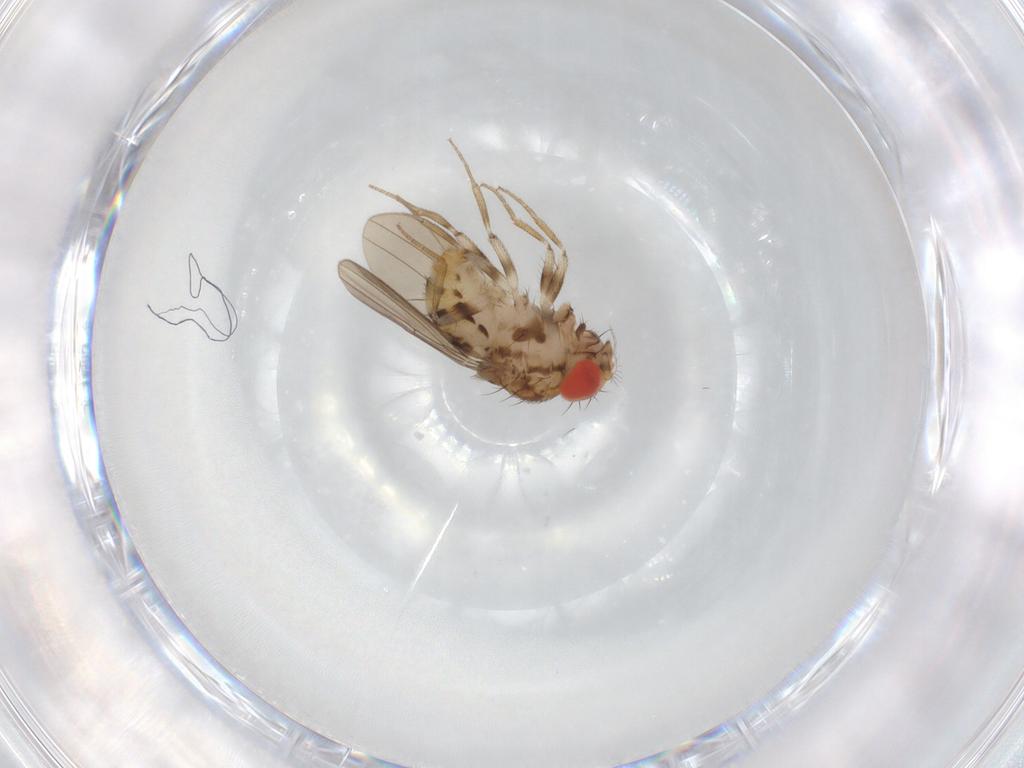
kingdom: Animalia
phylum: Arthropoda
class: Insecta
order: Diptera
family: Drosophilidae
